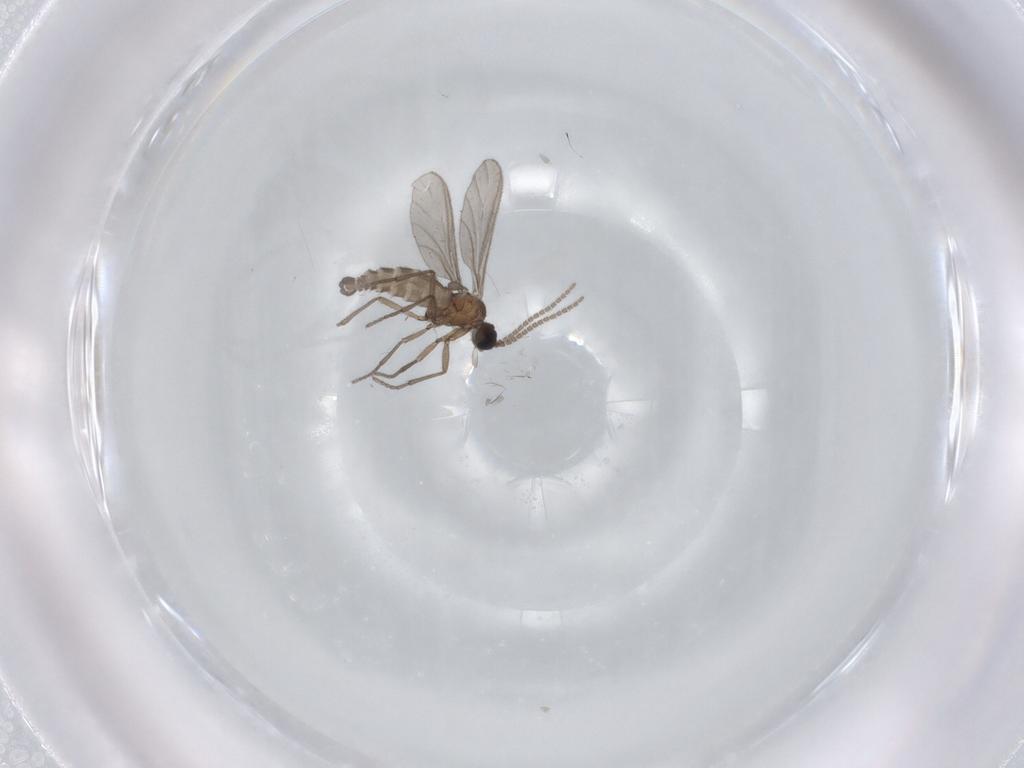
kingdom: Animalia
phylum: Arthropoda
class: Insecta
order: Diptera
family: Sciaridae
